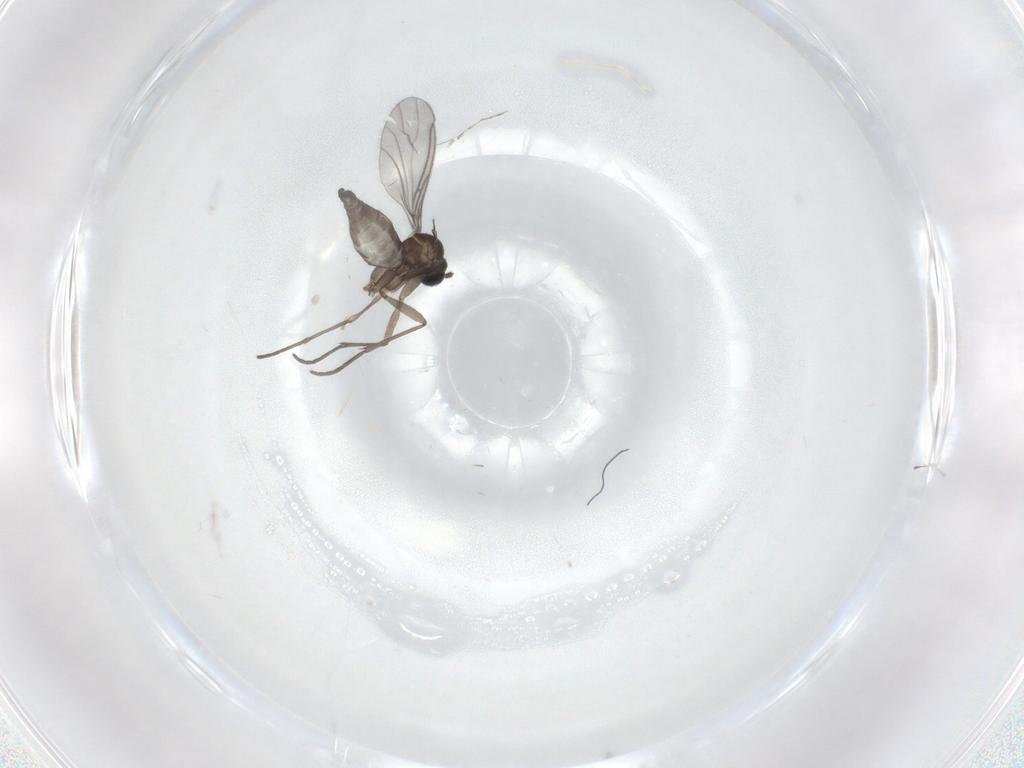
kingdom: Animalia
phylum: Arthropoda
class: Insecta
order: Diptera
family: Sciaridae
